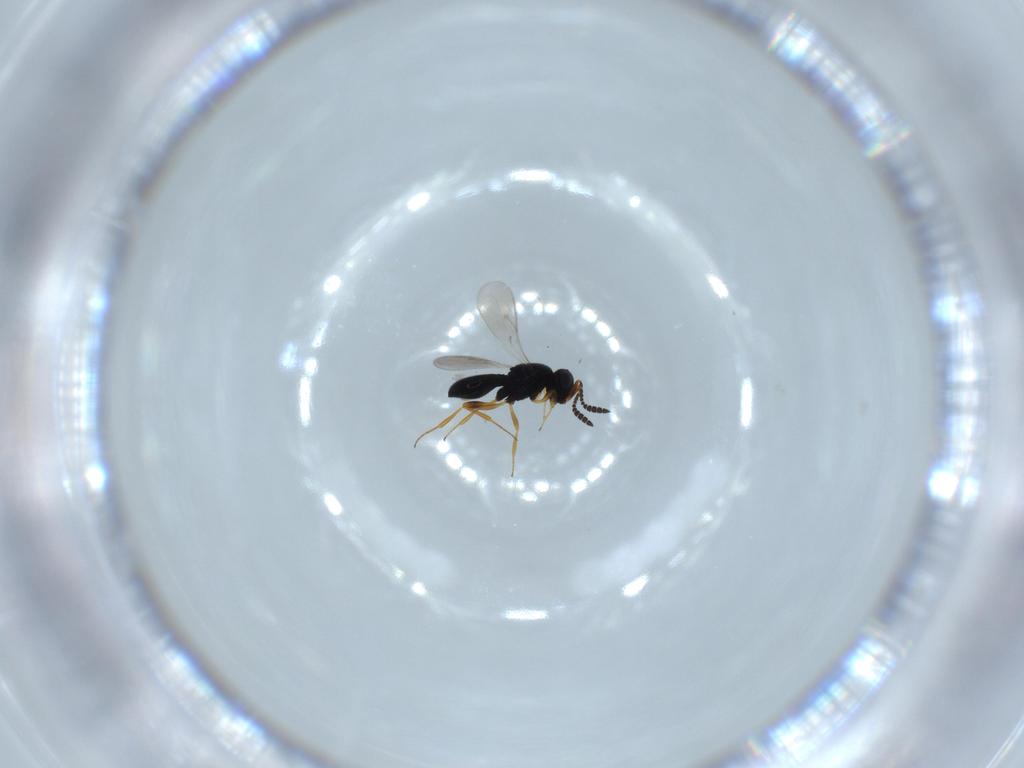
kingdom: Animalia
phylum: Arthropoda
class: Insecta
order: Hymenoptera
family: Scelionidae
